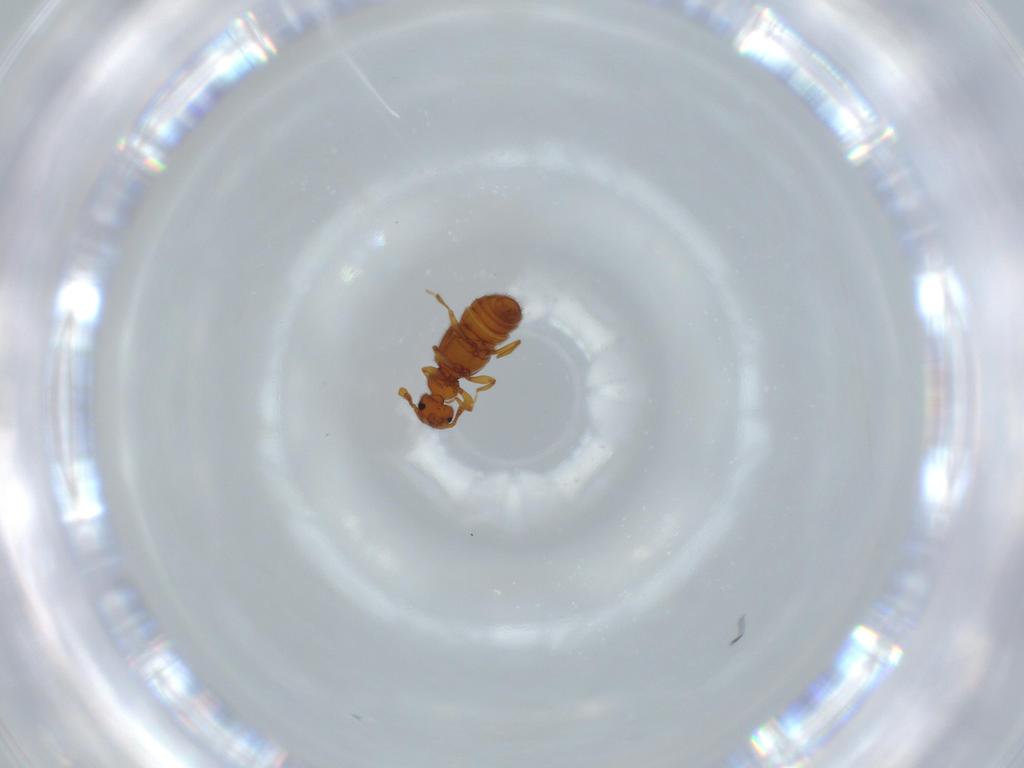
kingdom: Animalia
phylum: Arthropoda
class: Insecta
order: Coleoptera
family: Staphylinidae
